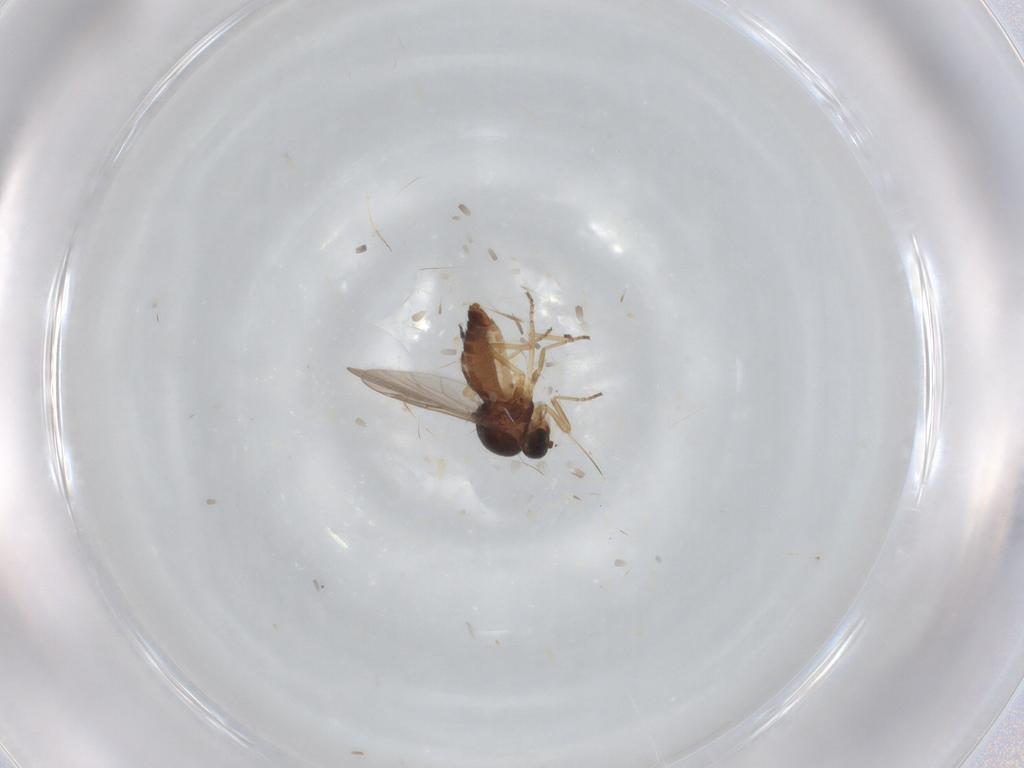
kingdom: Animalia
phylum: Arthropoda
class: Insecta
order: Diptera
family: Ceratopogonidae
